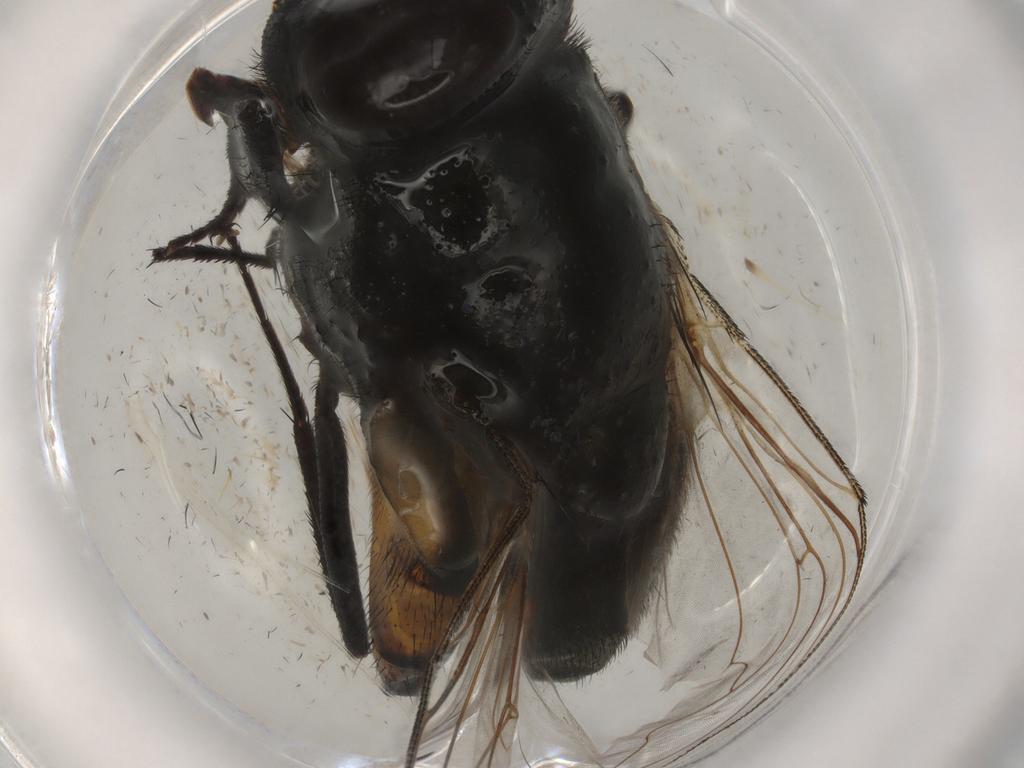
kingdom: Animalia
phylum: Arthropoda
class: Insecta
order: Diptera
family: Muscidae
